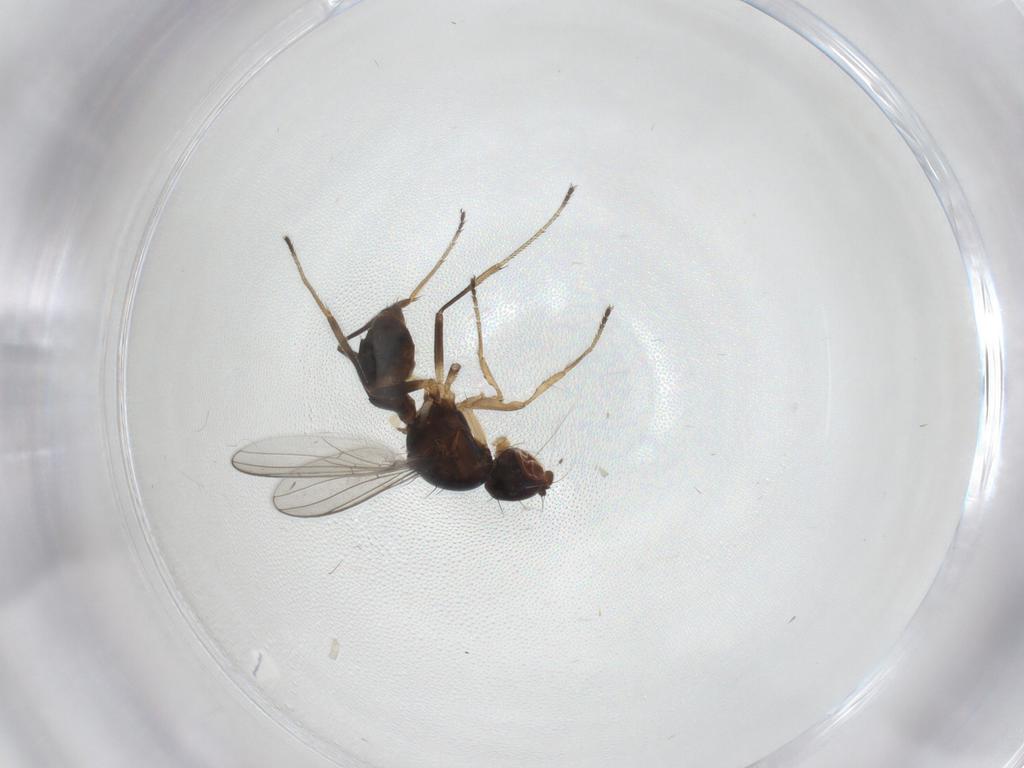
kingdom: Animalia
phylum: Arthropoda
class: Insecta
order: Diptera
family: Sepsidae
